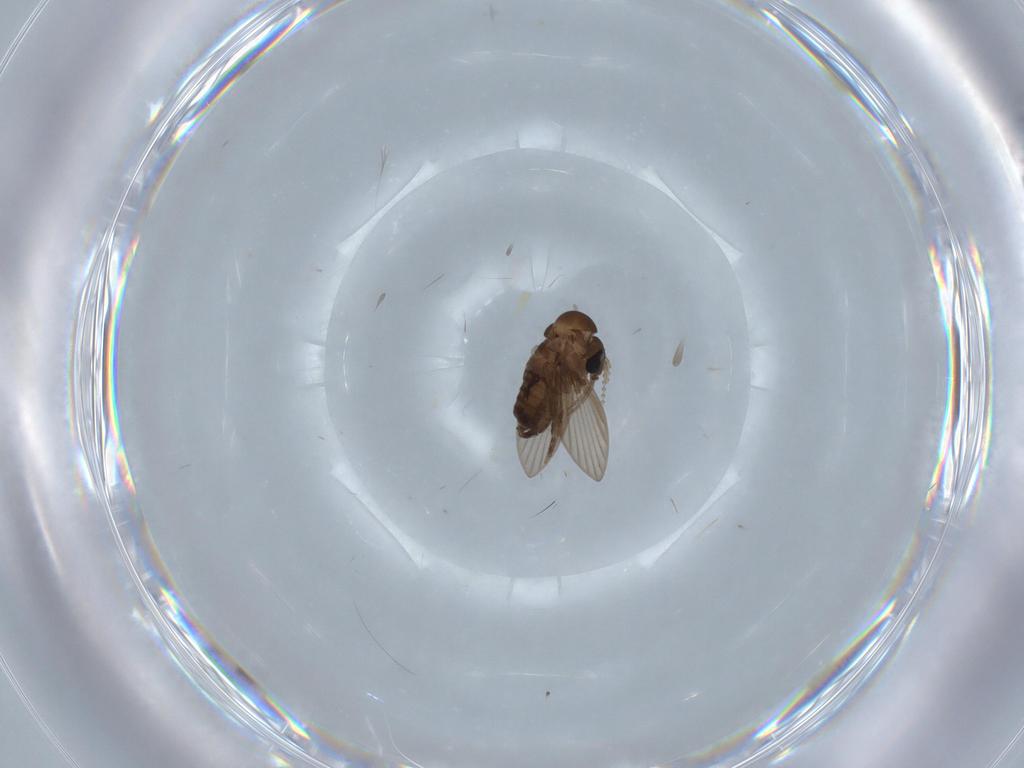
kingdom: Animalia
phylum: Arthropoda
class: Insecta
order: Diptera
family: Psychodidae
